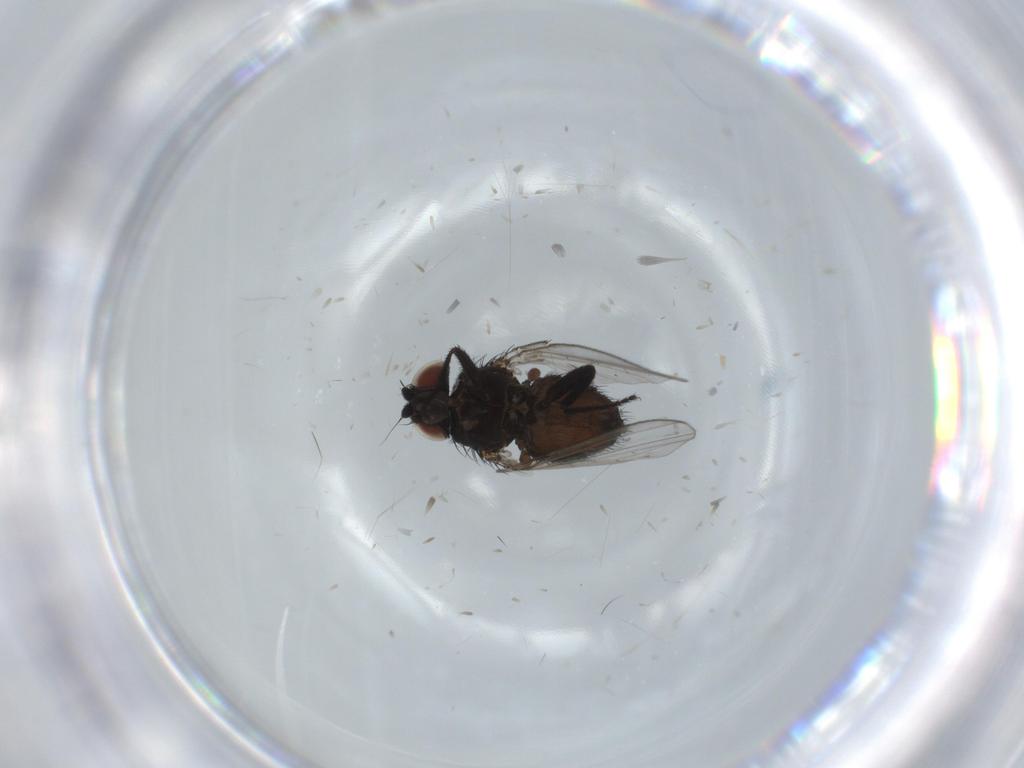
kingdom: Animalia
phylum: Arthropoda
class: Insecta
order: Diptera
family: Milichiidae
